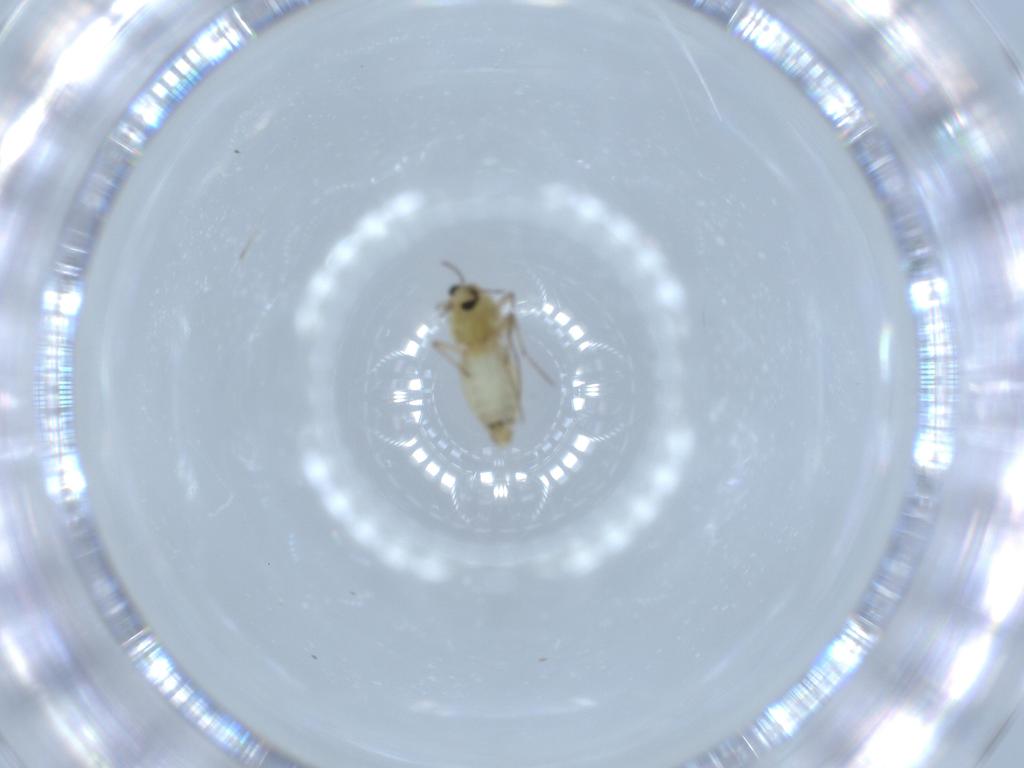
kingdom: Animalia
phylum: Arthropoda
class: Insecta
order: Diptera
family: Chironomidae
